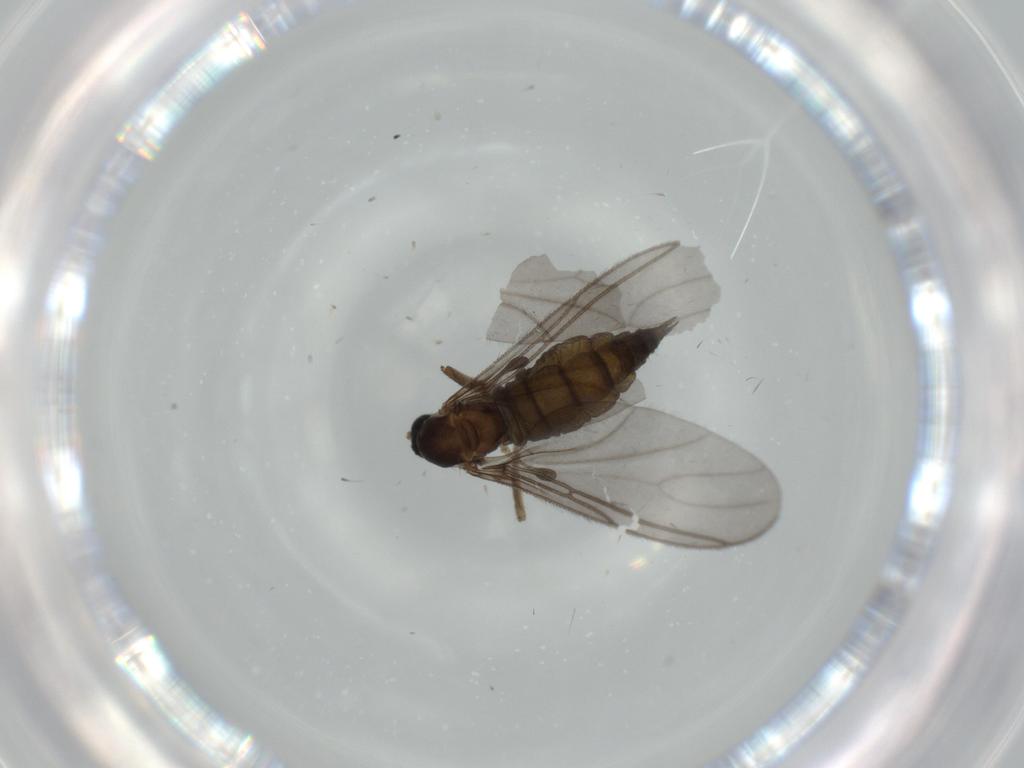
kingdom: Animalia
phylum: Arthropoda
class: Insecta
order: Diptera
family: Sciaridae
